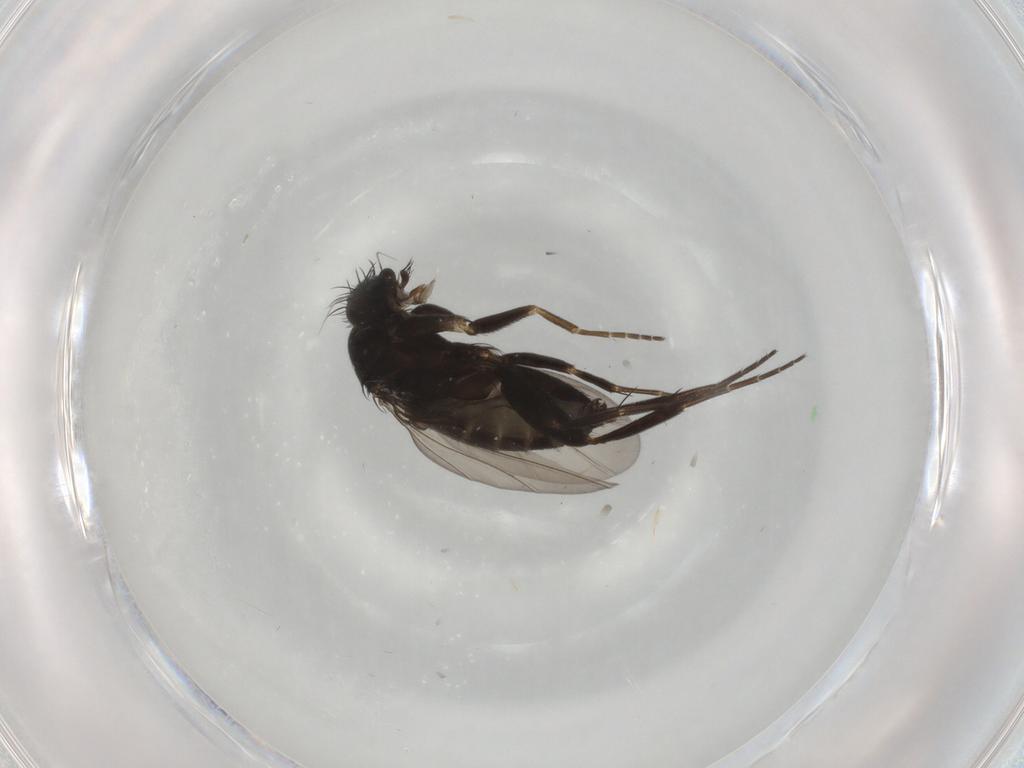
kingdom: Animalia
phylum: Arthropoda
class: Insecta
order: Diptera
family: Phoridae
